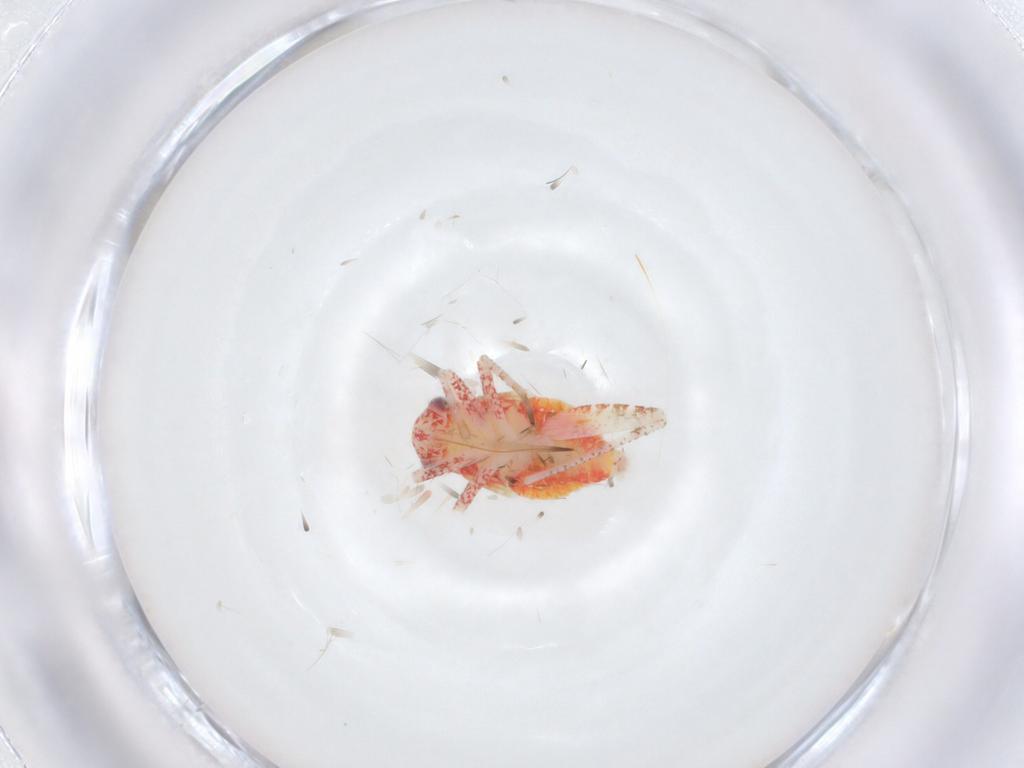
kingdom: Animalia
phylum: Arthropoda
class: Insecta
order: Hemiptera
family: Miridae
